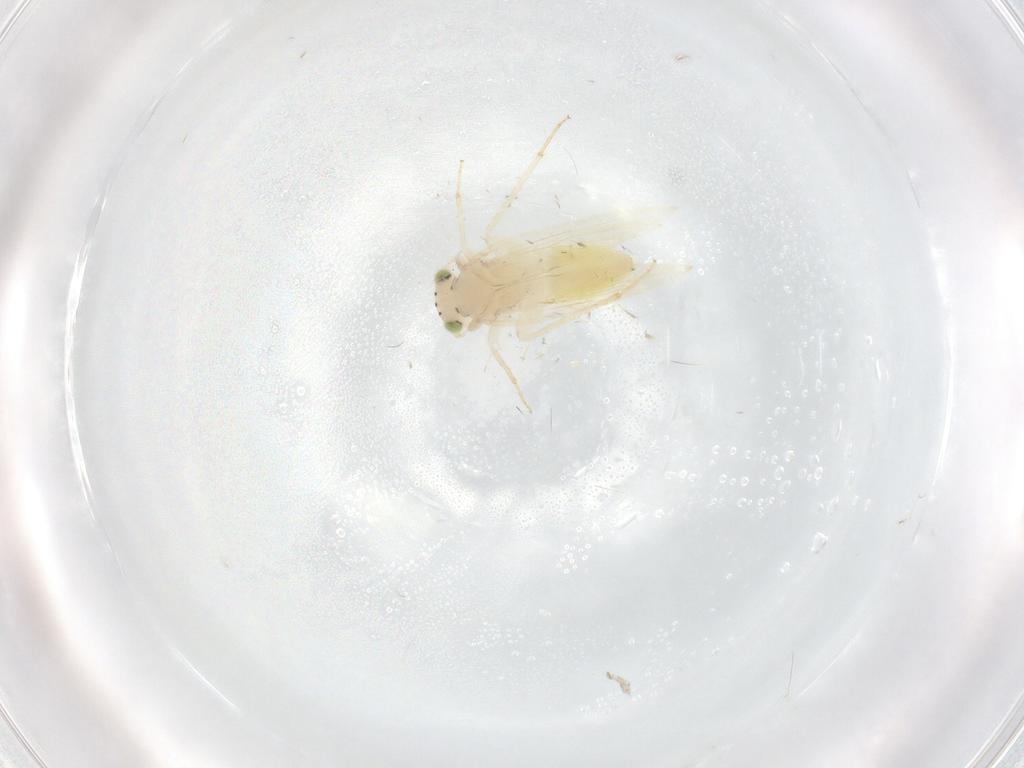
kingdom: Animalia
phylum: Arthropoda
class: Insecta
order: Psocodea
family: Lepidopsocidae
